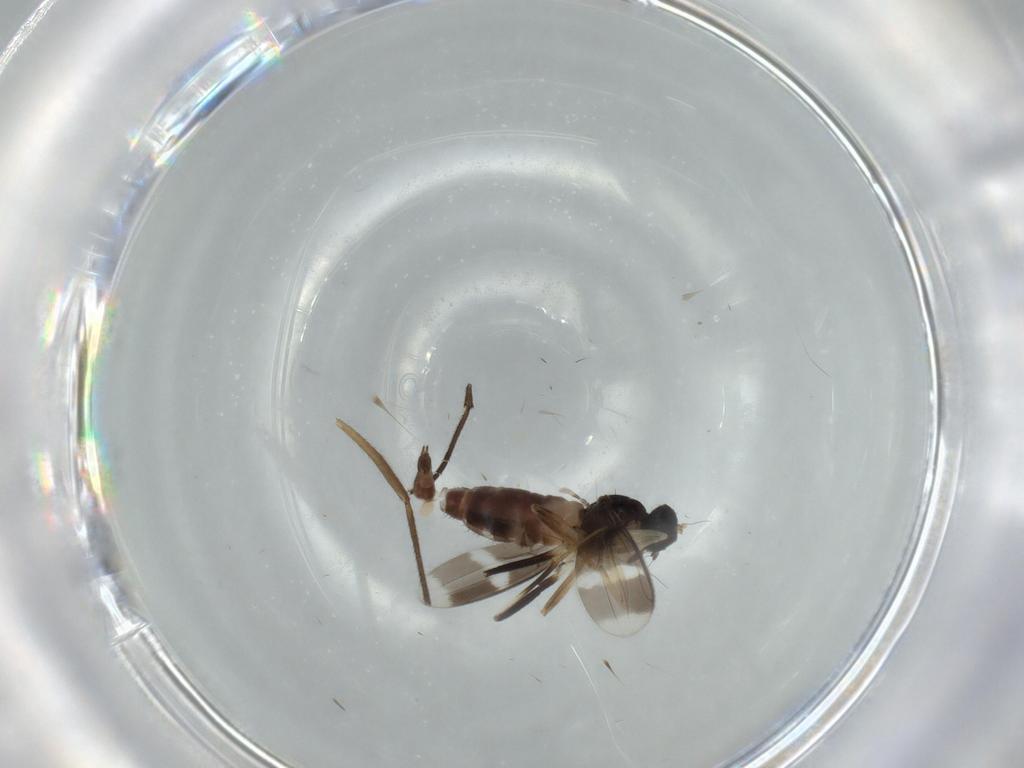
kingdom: Animalia
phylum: Arthropoda
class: Insecta
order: Diptera
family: Hybotidae
